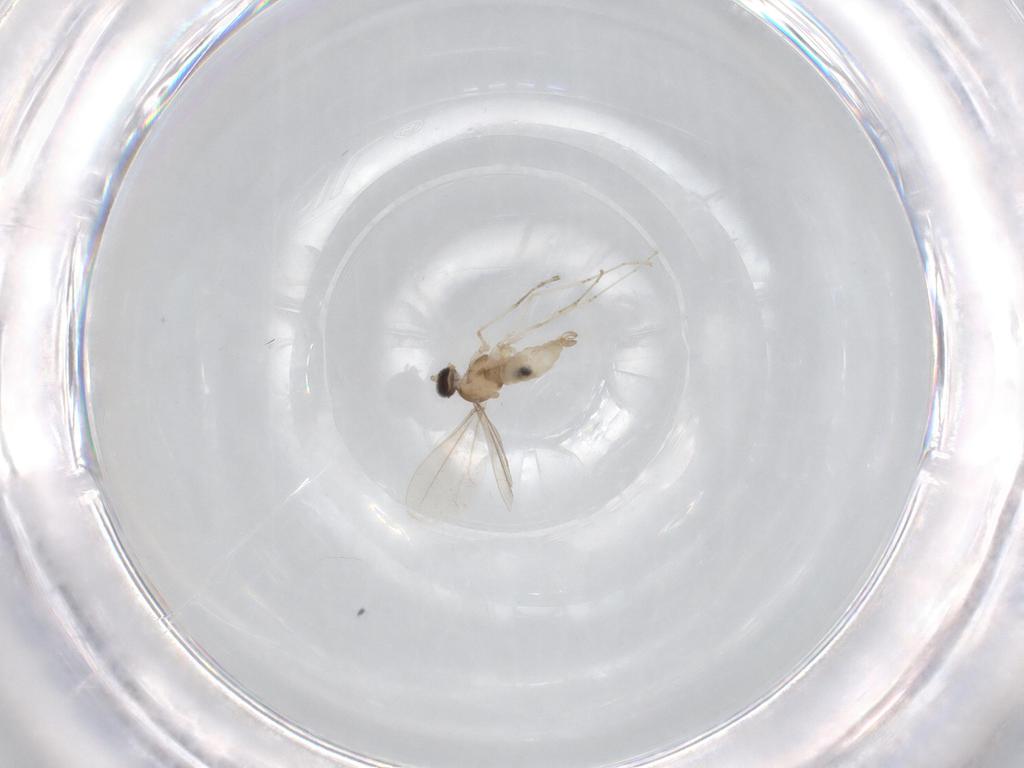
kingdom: Animalia
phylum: Arthropoda
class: Insecta
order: Diptera
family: Cecidomyiidae
